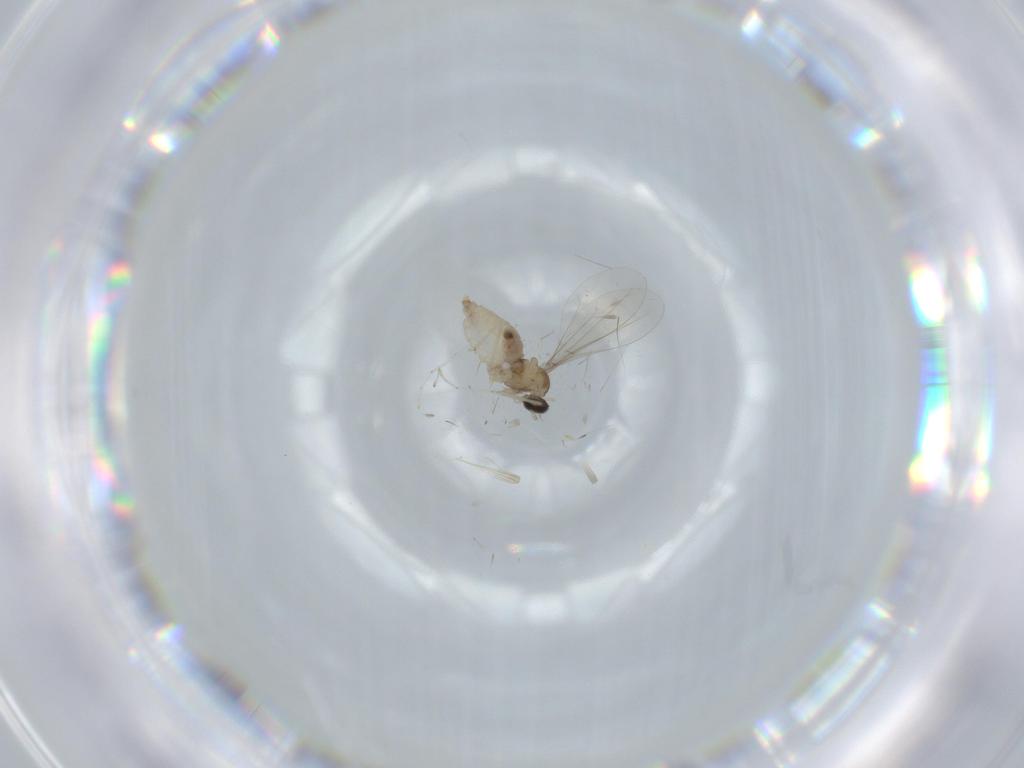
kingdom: Animalia
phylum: Arthropoda
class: Insecta
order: Diptera
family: Cecidomyiidae
